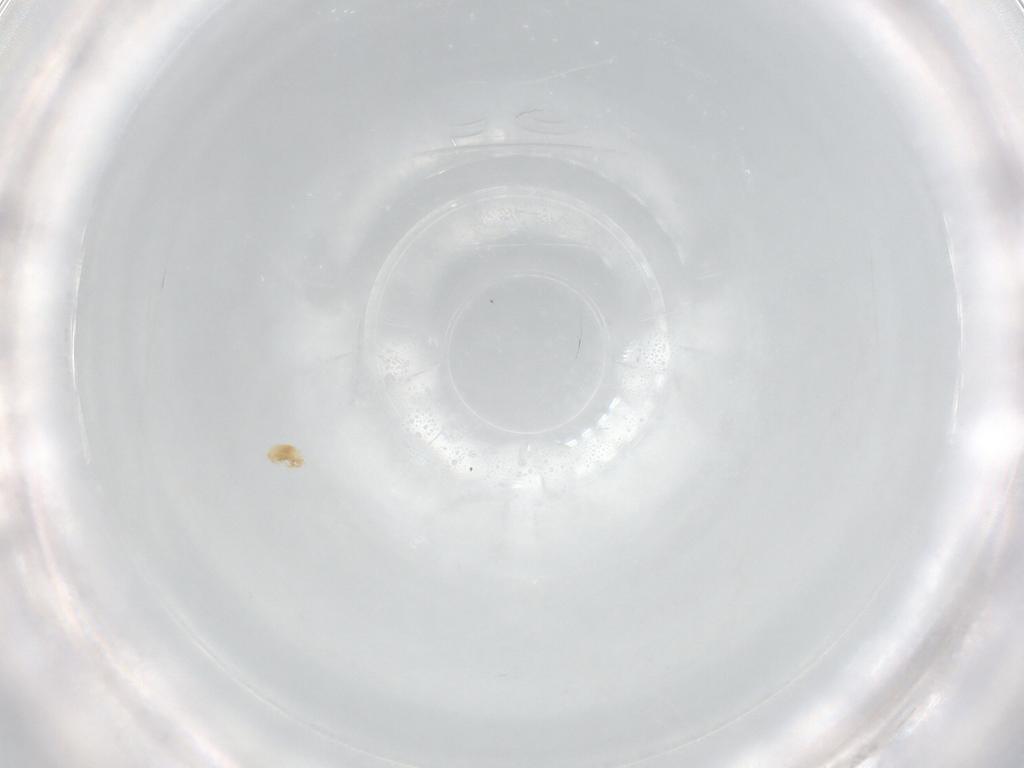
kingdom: Animalia
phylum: Arthropoda
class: Arachnida
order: Trombidiformes
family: Cunaxidae
